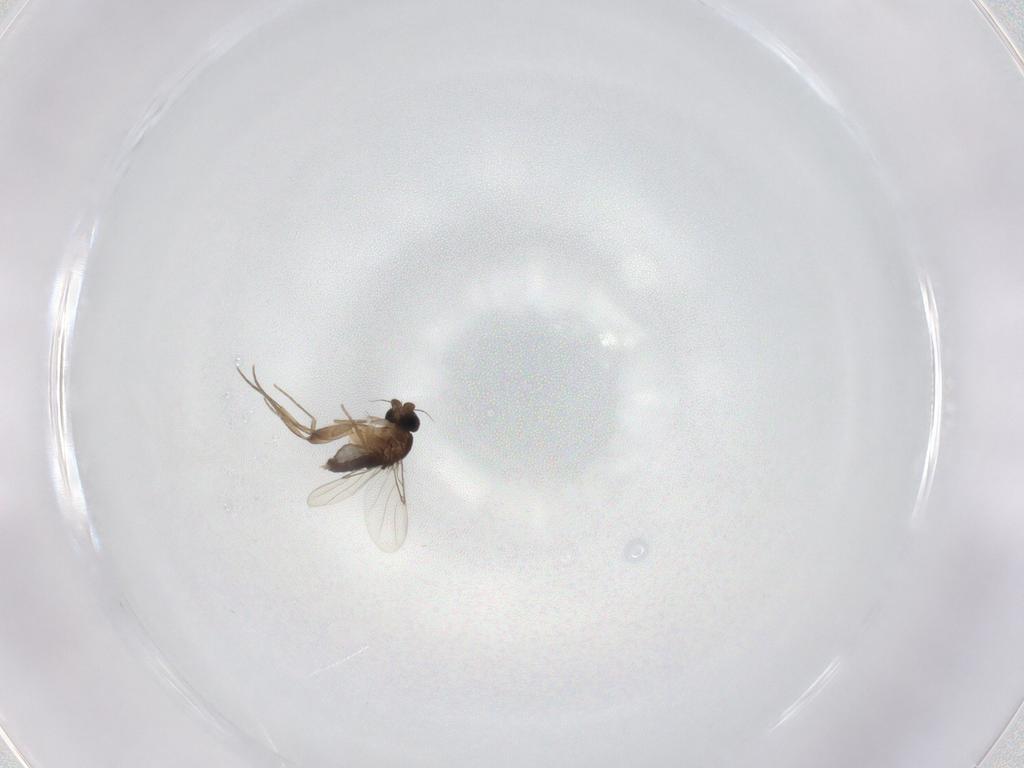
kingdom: Animalia
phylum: Arthropoda
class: Insecta
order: Diptera
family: Phoridae
